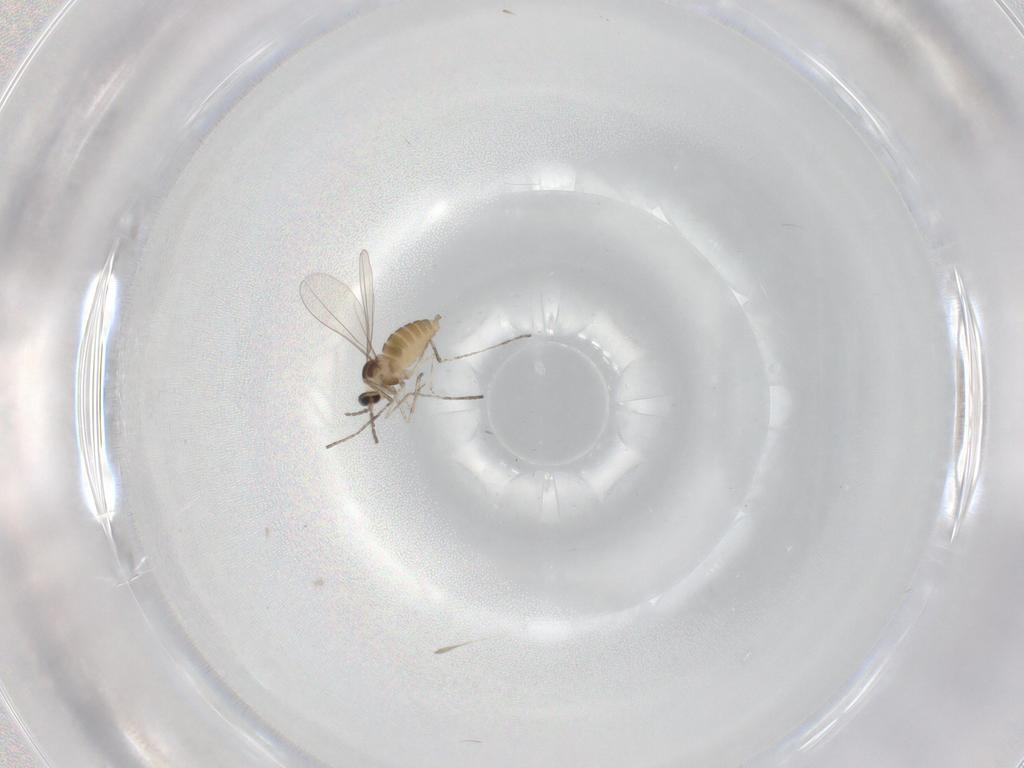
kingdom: Animalia
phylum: Arthropoda
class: Insecta
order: Diptera
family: Cecidomyiidae
